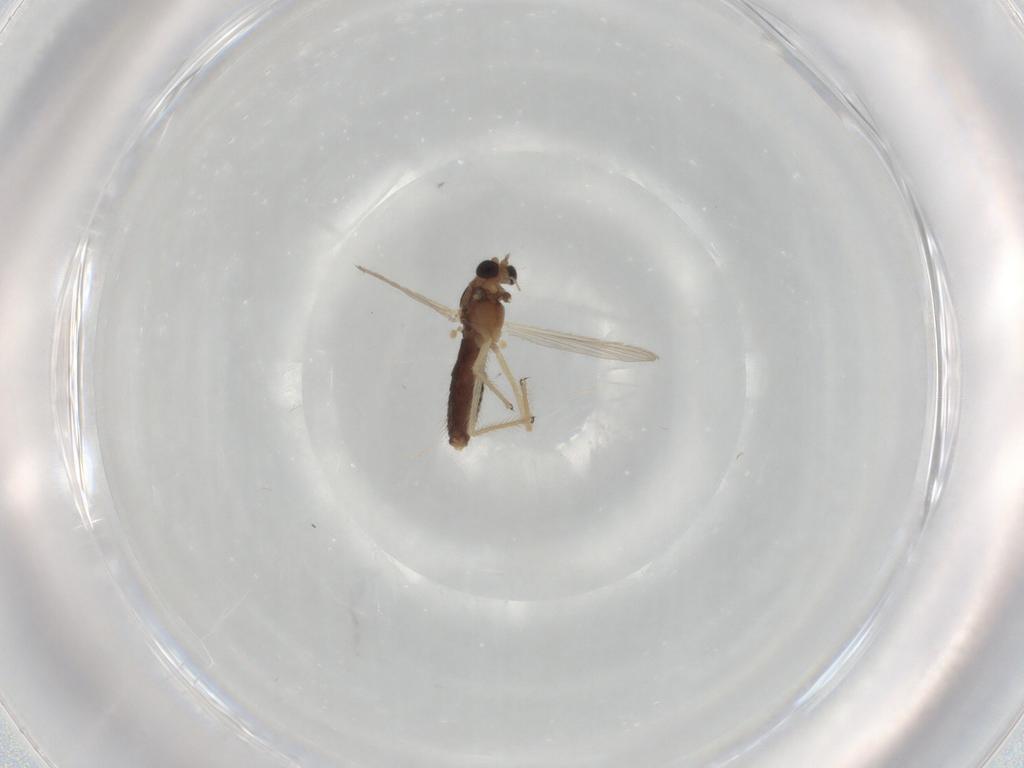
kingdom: Animalia
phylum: Arthropoda
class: Insecta
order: Diptera
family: Chironomidae
